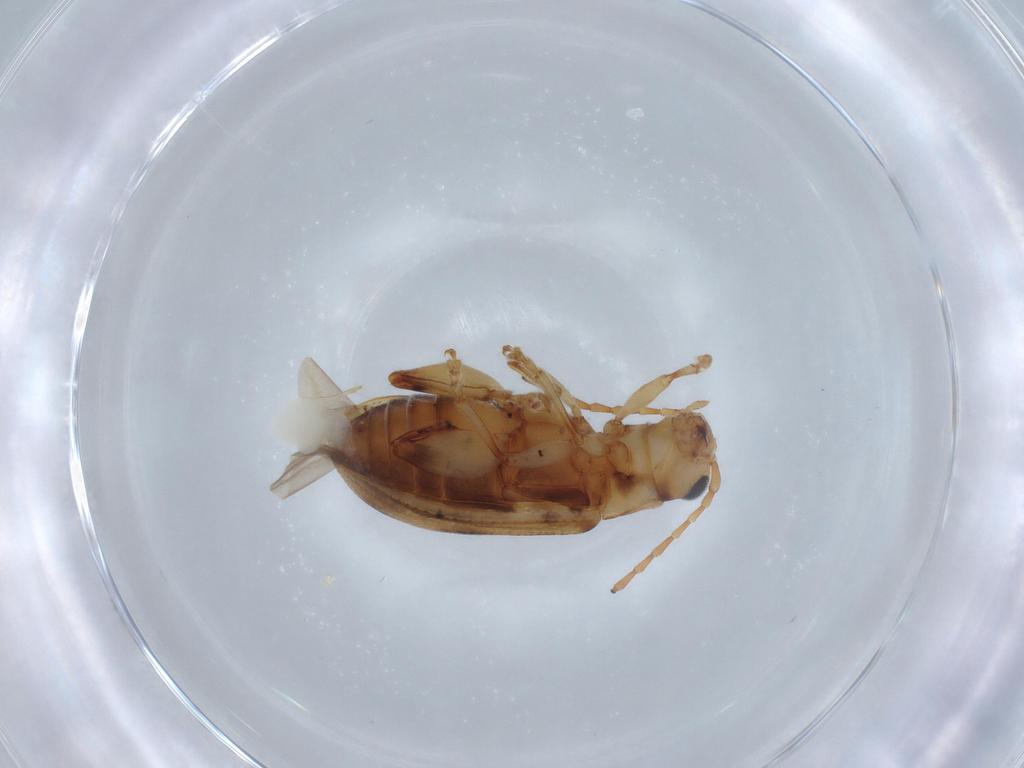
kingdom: Animalia
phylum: Arthropoda
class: Insecta
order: Coleoptera
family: Chrysomelidae
